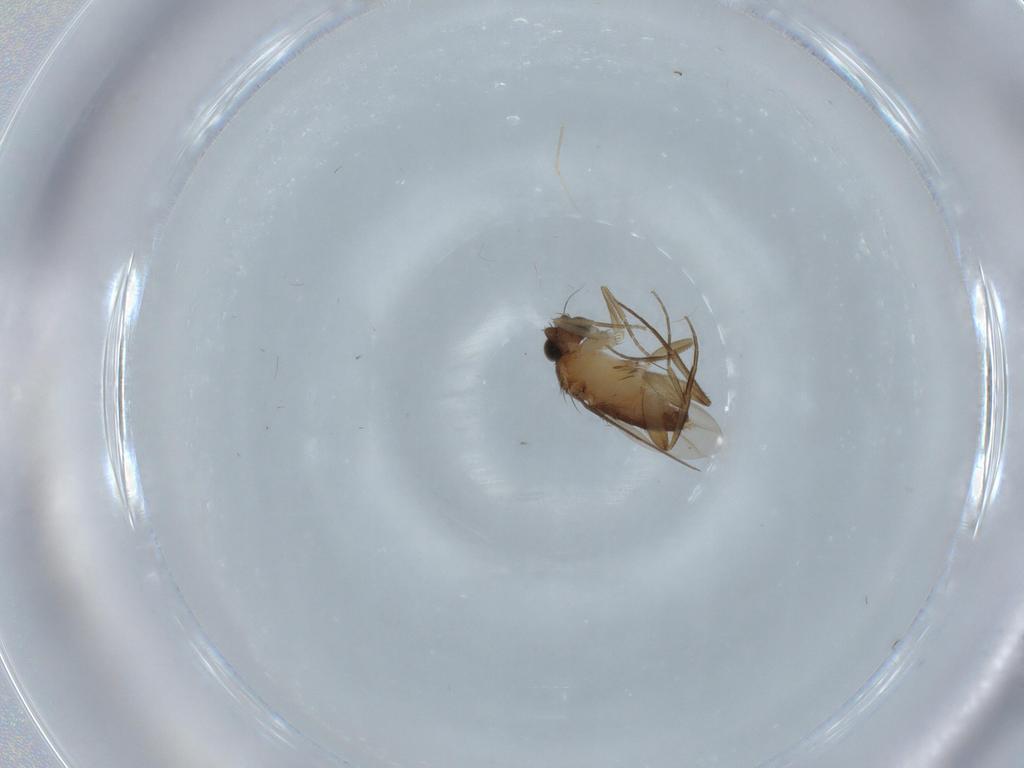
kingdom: Animalia
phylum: Arthropoda
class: Insecta
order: Diptera
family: Phoridae
